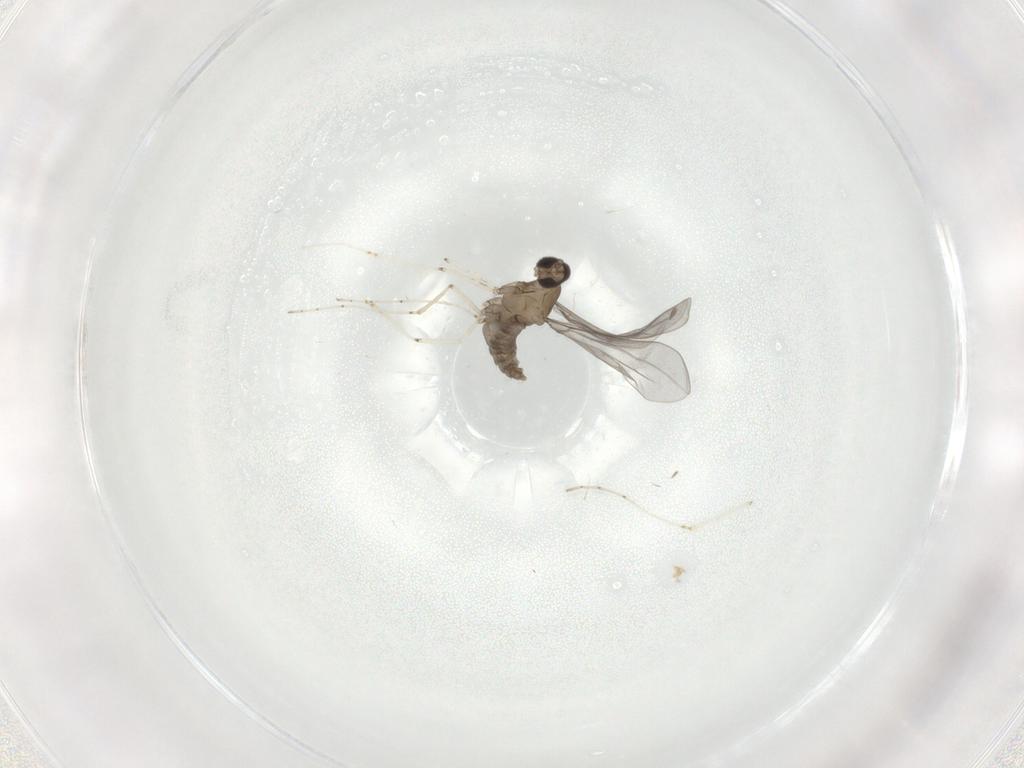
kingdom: Animalia
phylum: Arthropoda
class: Insecta
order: Diptera
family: Cecidomyiidae
